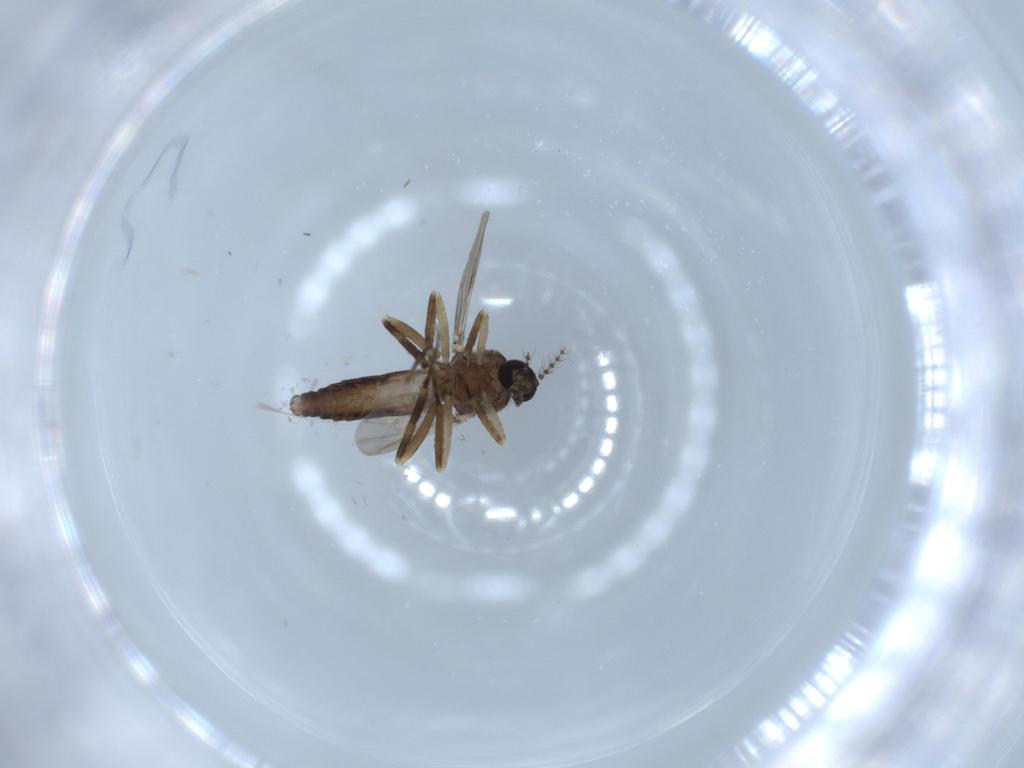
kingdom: Animalia
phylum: Arthropoda
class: Insecta
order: Diptera
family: Ceratopogonidae
